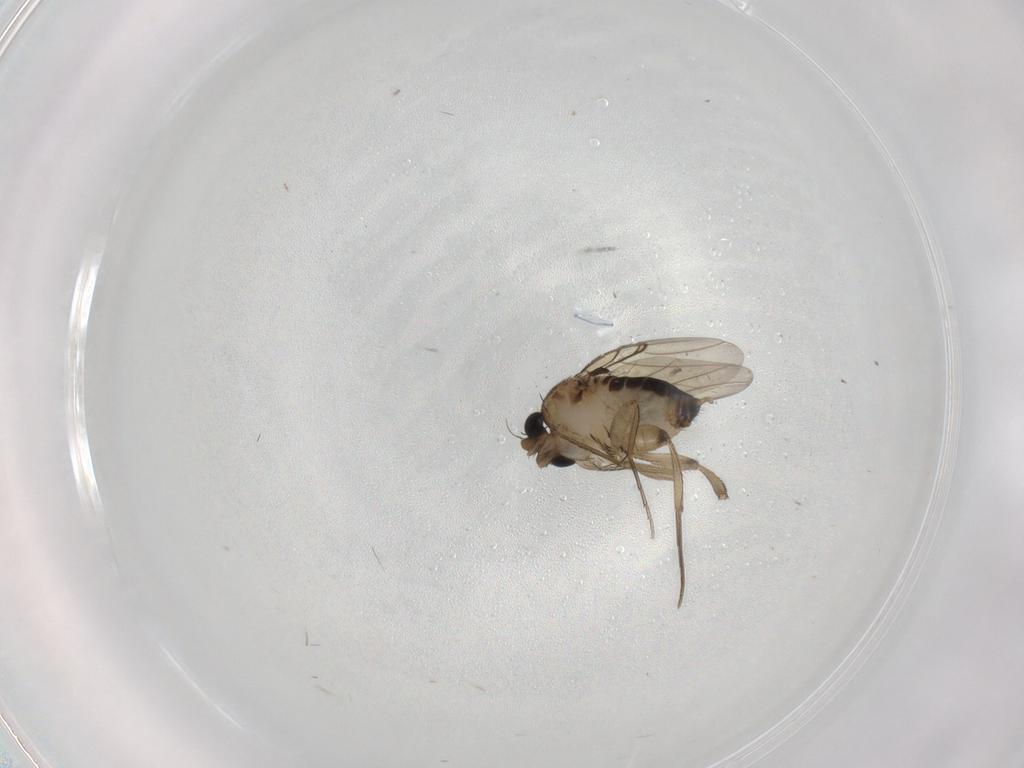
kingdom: Animalia
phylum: Arthropoda
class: Insecta
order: Diptera
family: Phoridae
